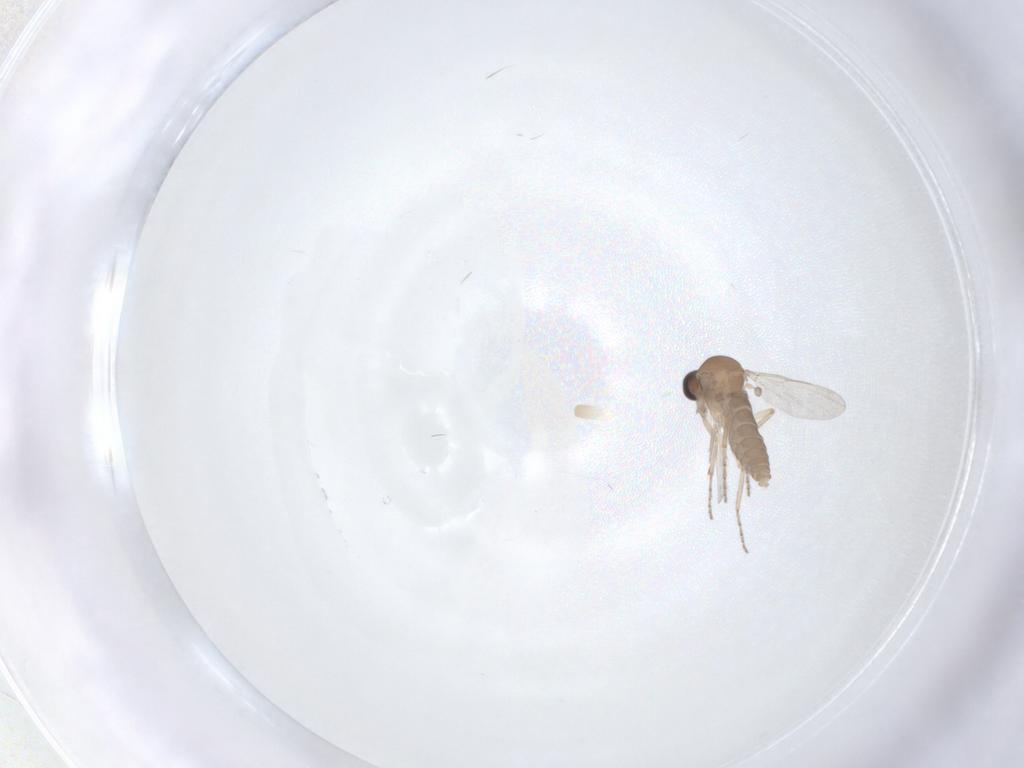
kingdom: Animalia
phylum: Arthropoda
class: Insecta
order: Diptera
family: Ceratopogonidae
